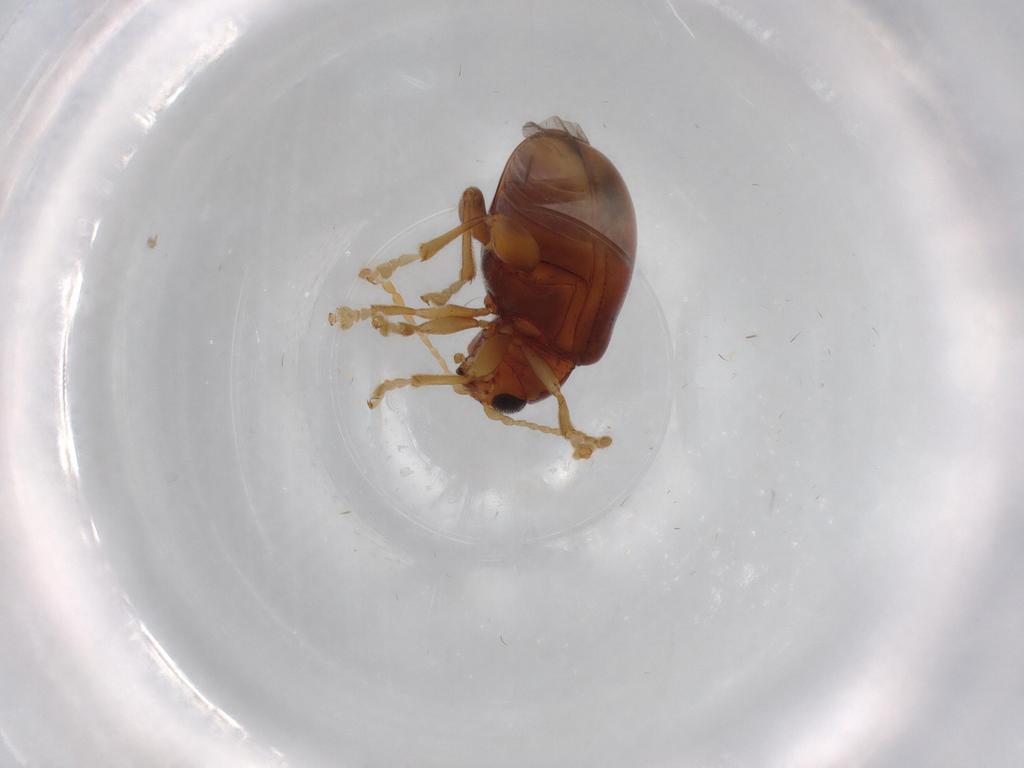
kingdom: Animalia
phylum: Arthropoda
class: Insecta
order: Coleoptera
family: Chrysomelidae
